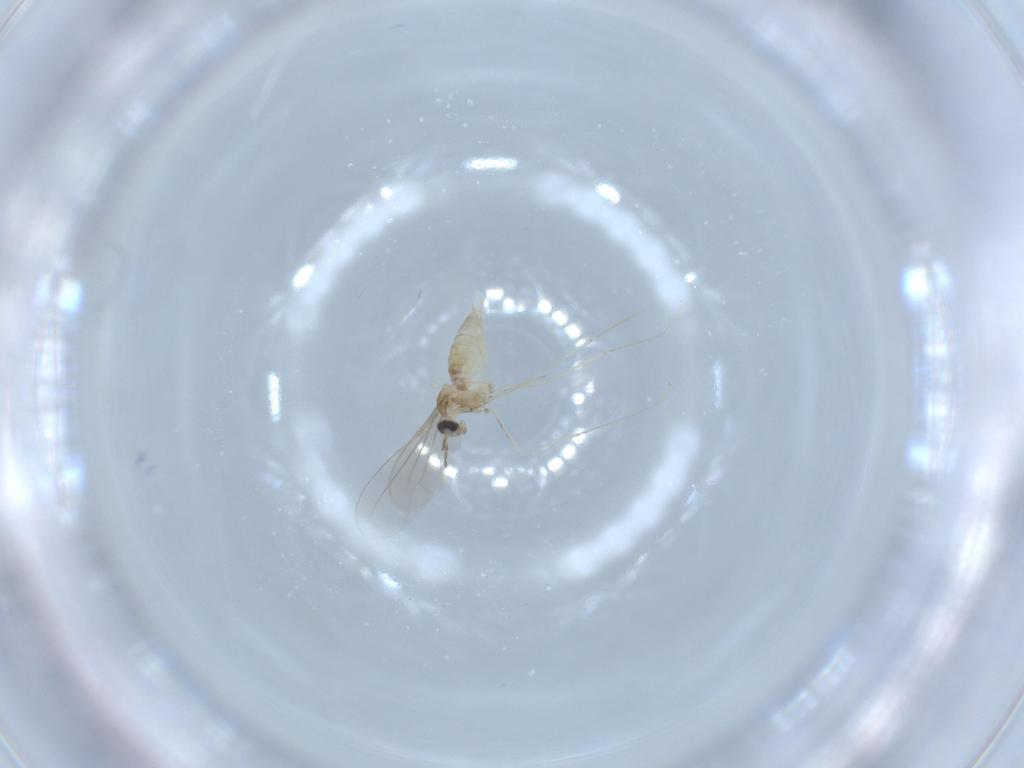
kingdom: Animalia
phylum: Arthropoda
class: Insecta
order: Diptera
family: Cecidomyiidae
